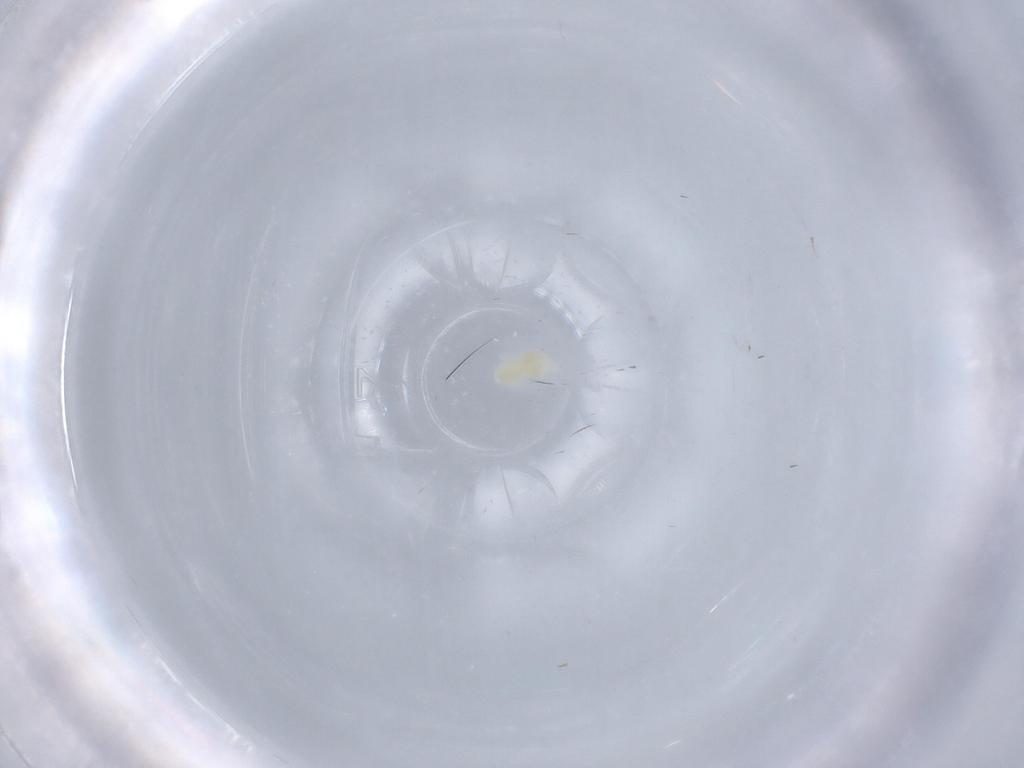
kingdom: Animalia
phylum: Arthropoda
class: Arachnida
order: Trombidiformes
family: Eupodidae
